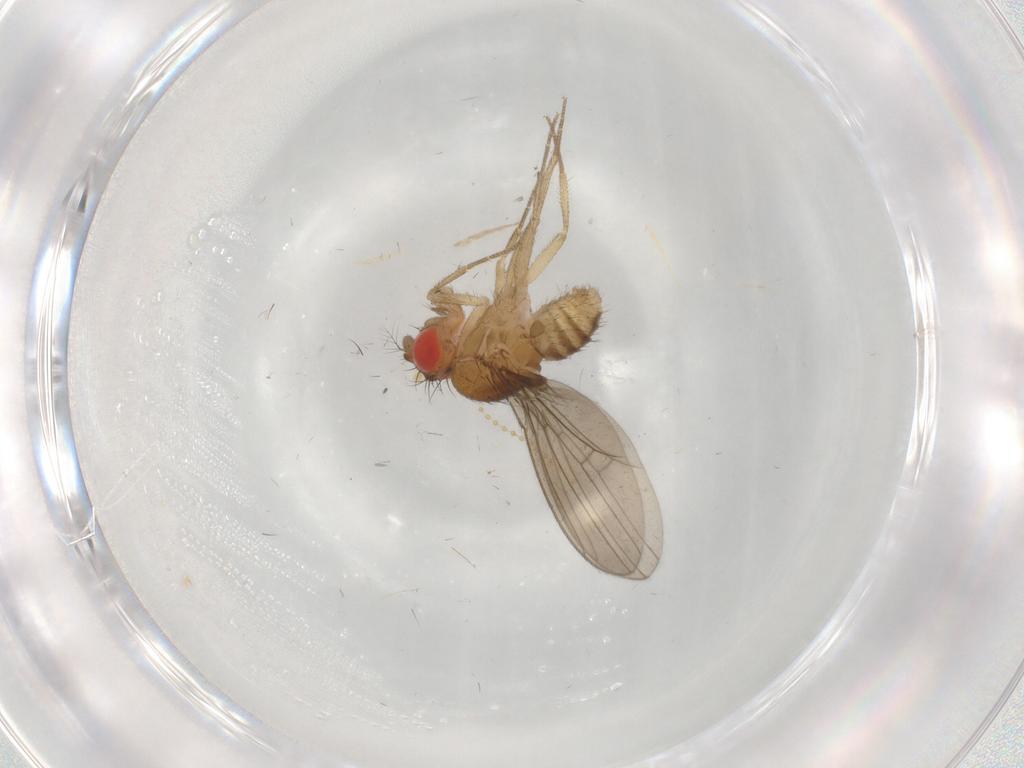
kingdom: Animalia
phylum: Arthropoda
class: Insecta
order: Diptera
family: Drosophilidae
